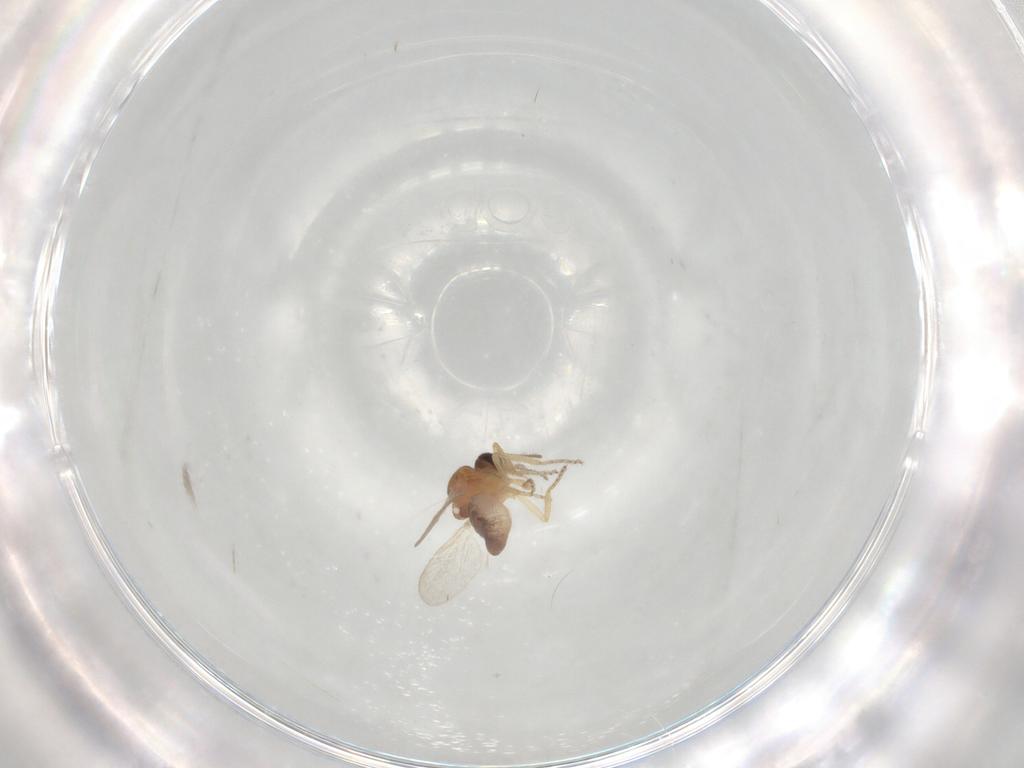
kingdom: Animalia
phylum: Arthropoda
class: Insecta
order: Diptera
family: Ceratopogonidae
